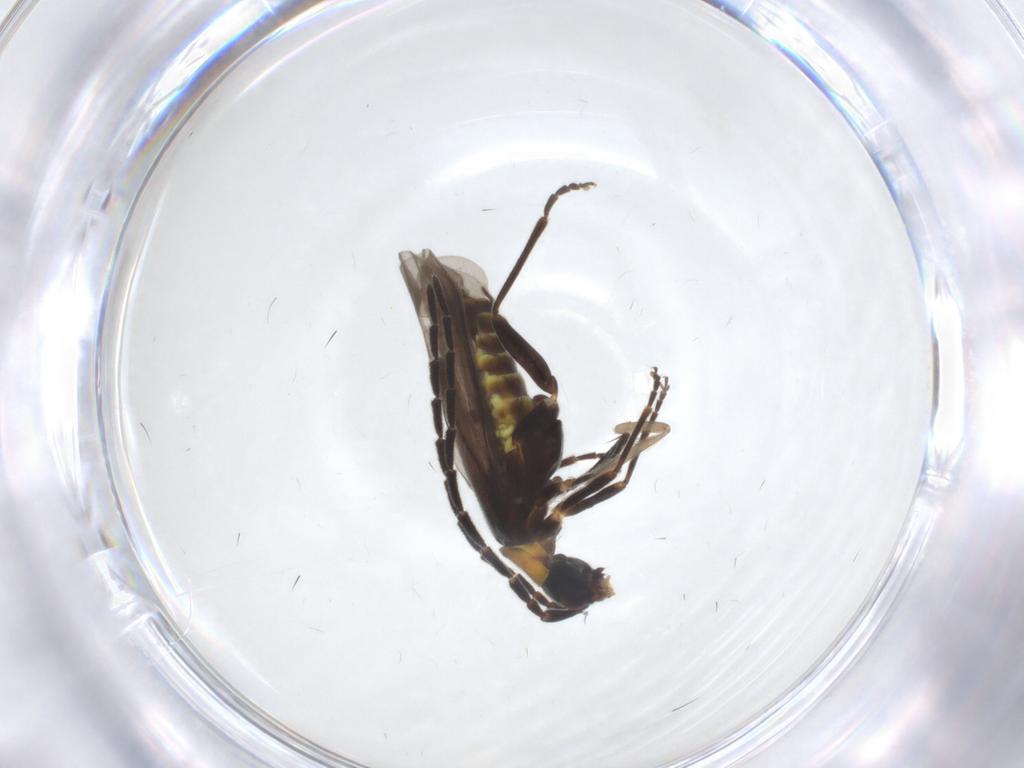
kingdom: Animalia
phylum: Arthropoda
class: Insecta
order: Coleoptera
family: Cantharidae
